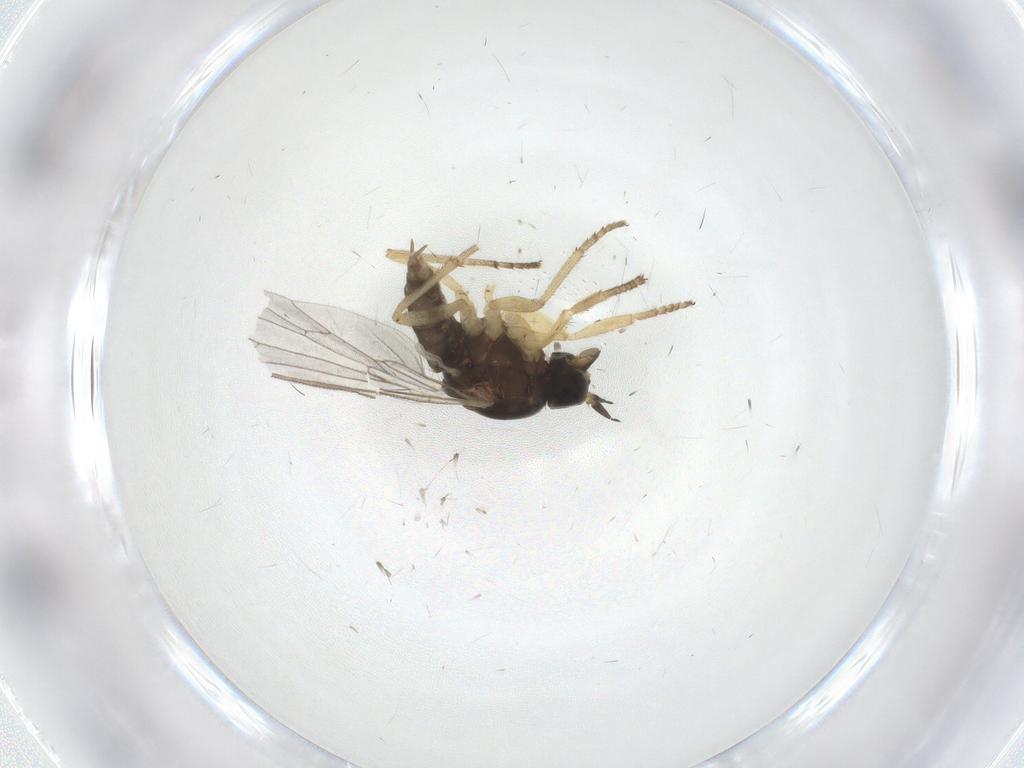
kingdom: Animalia
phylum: Arthropoda
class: Insecta
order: Diptera
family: Empididae
